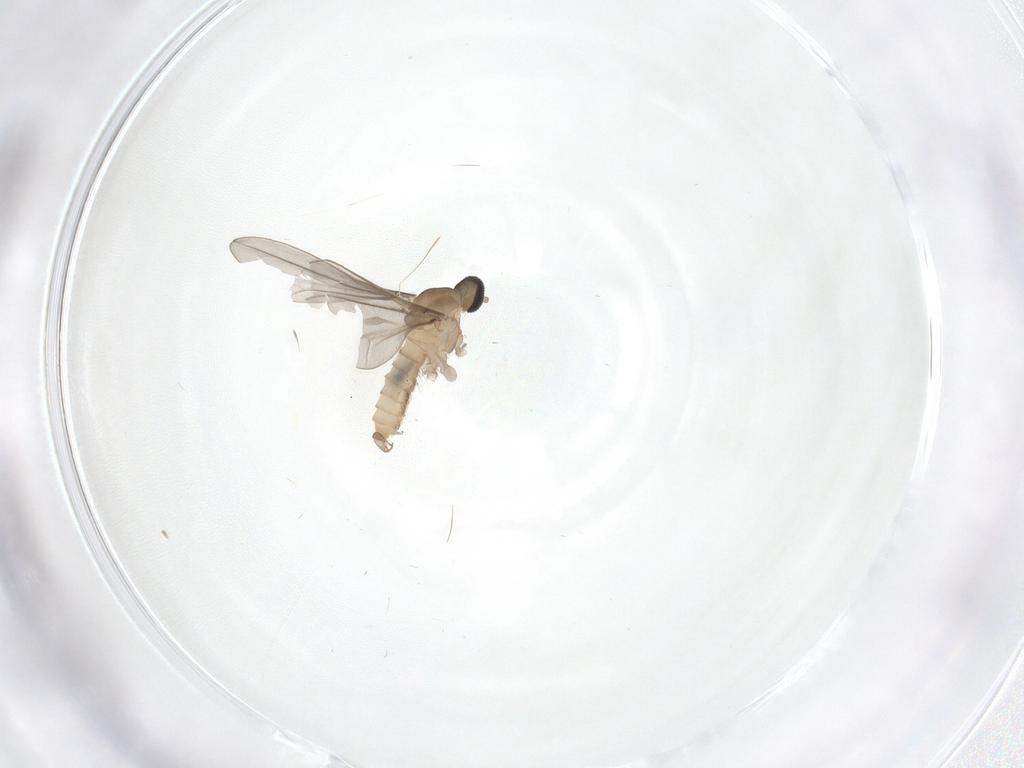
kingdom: Animalia
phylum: Arthropoda
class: Insecta
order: Diptera
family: Cecidomyiidae
